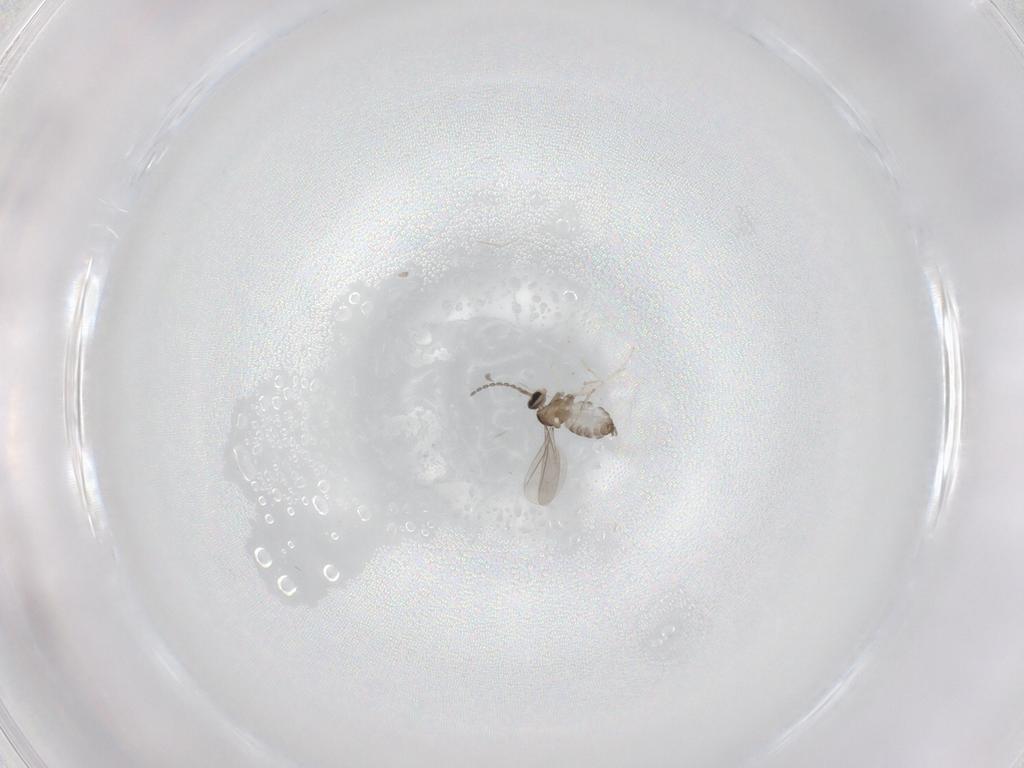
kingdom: Animalia
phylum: Arthropoda
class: Insecta
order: Diptera
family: Cecidomyiidae
